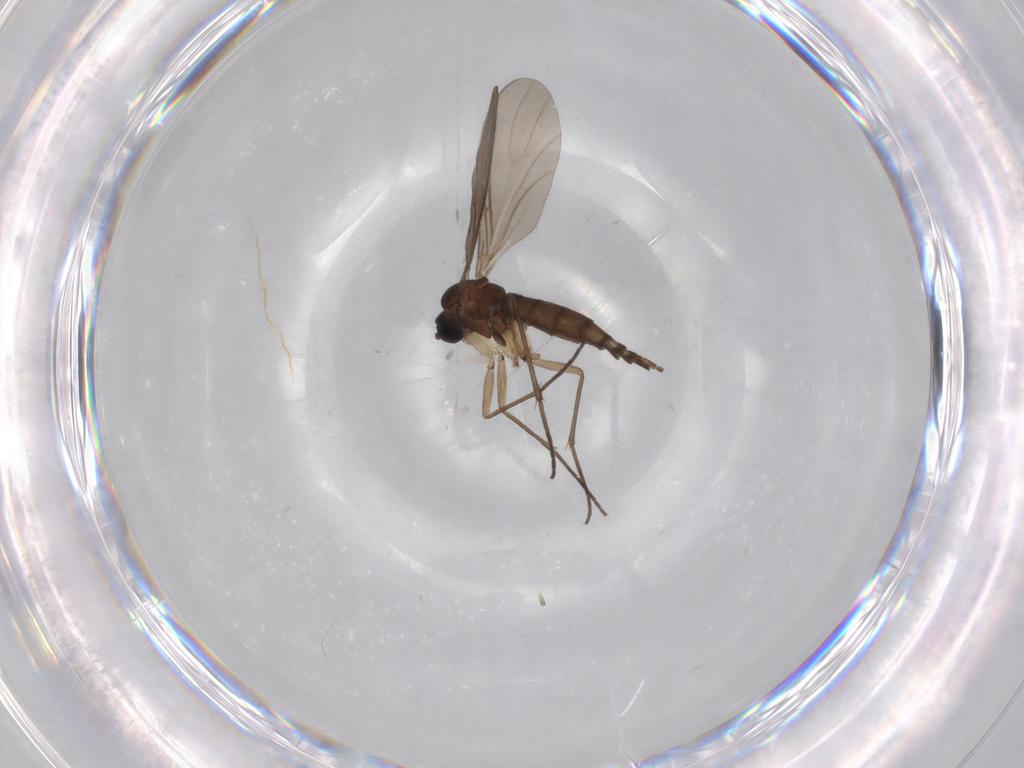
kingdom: Animalia
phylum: Arthropoda
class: Insecta
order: Diptera
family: Sciaridae
